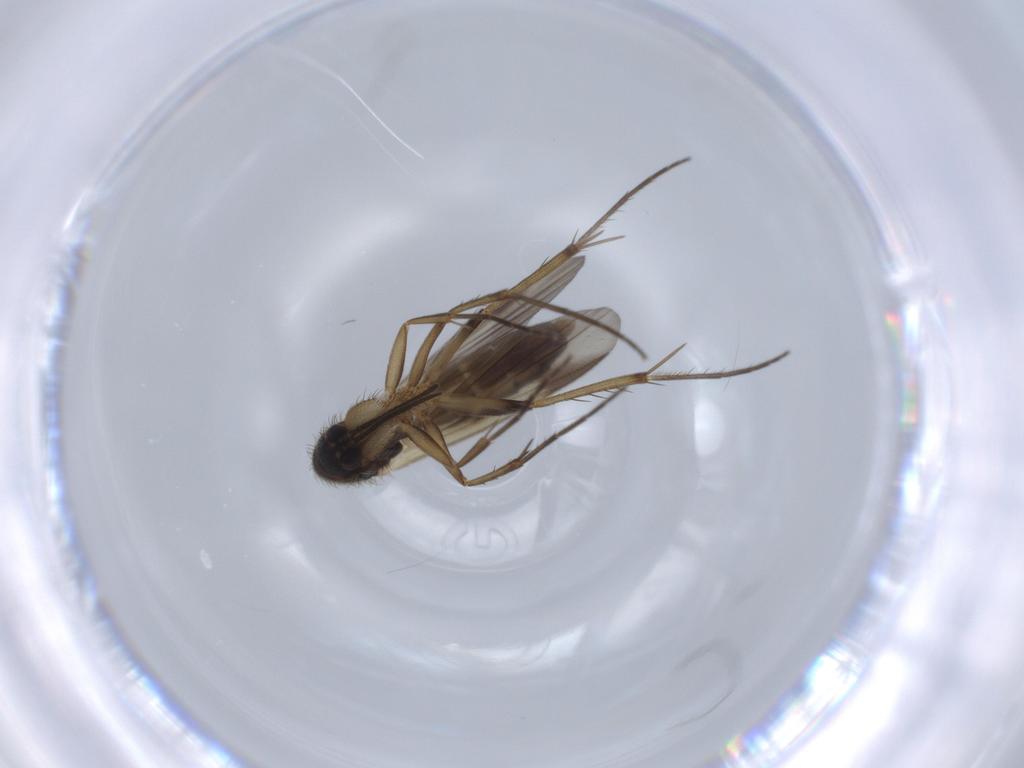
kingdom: Animalia
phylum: Arthropoda
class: Insecta
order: Diptera
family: Mycetophilidae
